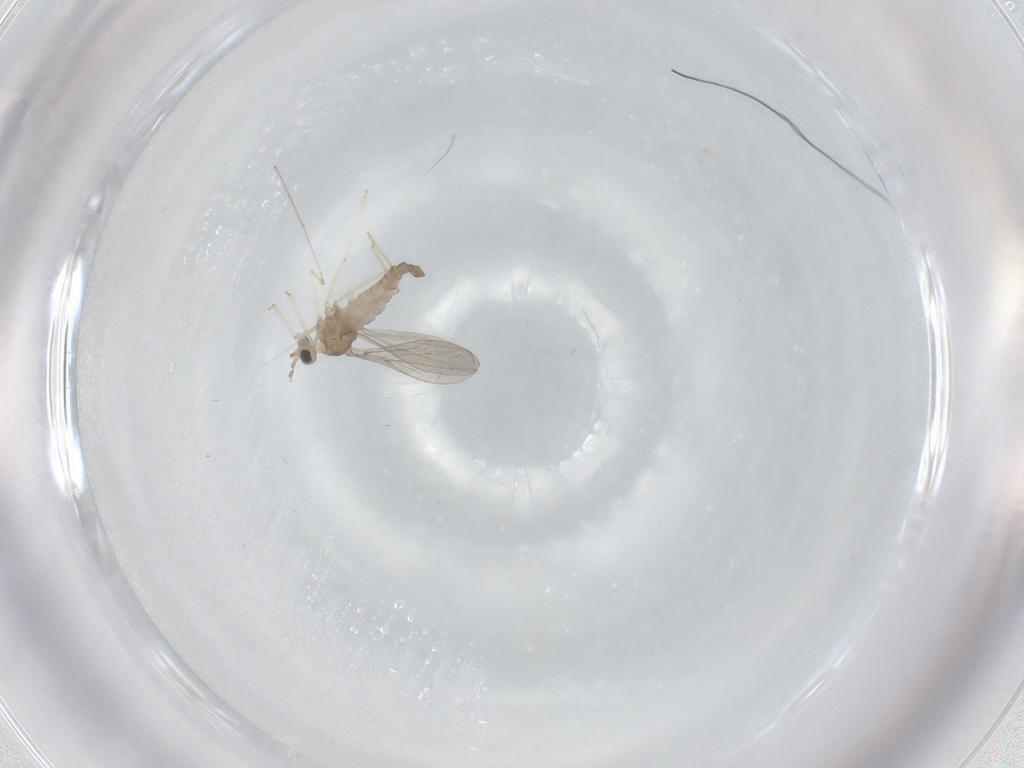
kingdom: Animalia
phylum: Arthropoda
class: Insecta
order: Diptera
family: Cecidomyiidae
